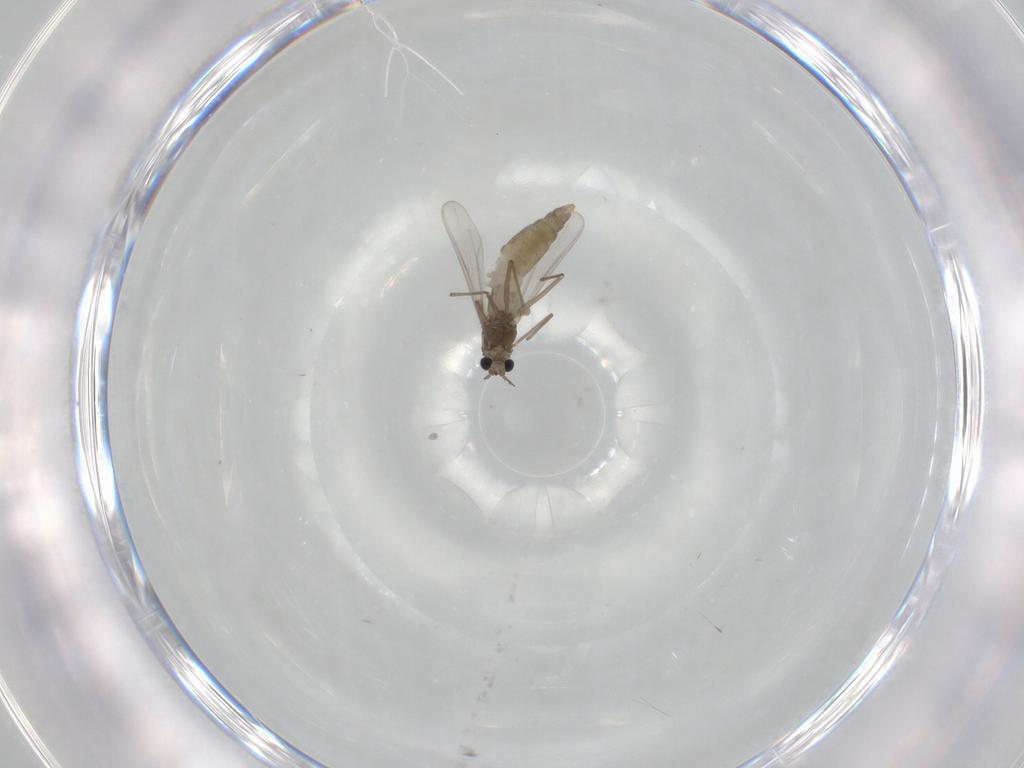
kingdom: Animalia
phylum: Arthropoda
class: Insecta
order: Diptera
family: Chironomidae
